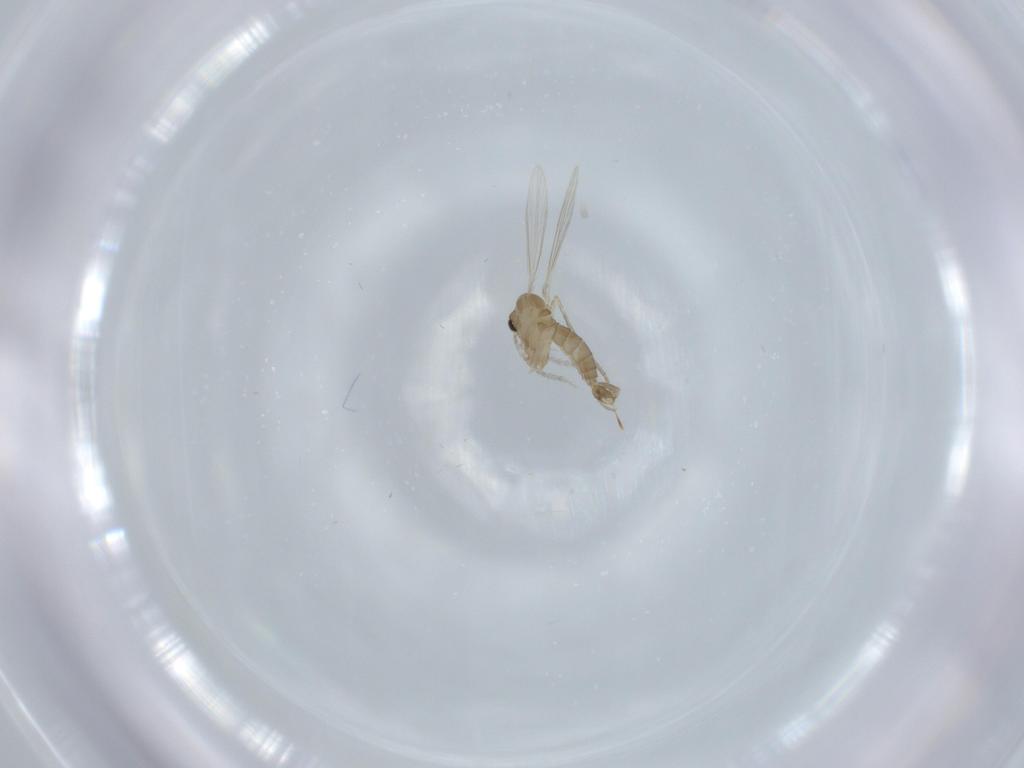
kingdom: Animalia
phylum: Arthropoda
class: Insecta
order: Diptera
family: Psychodidae
